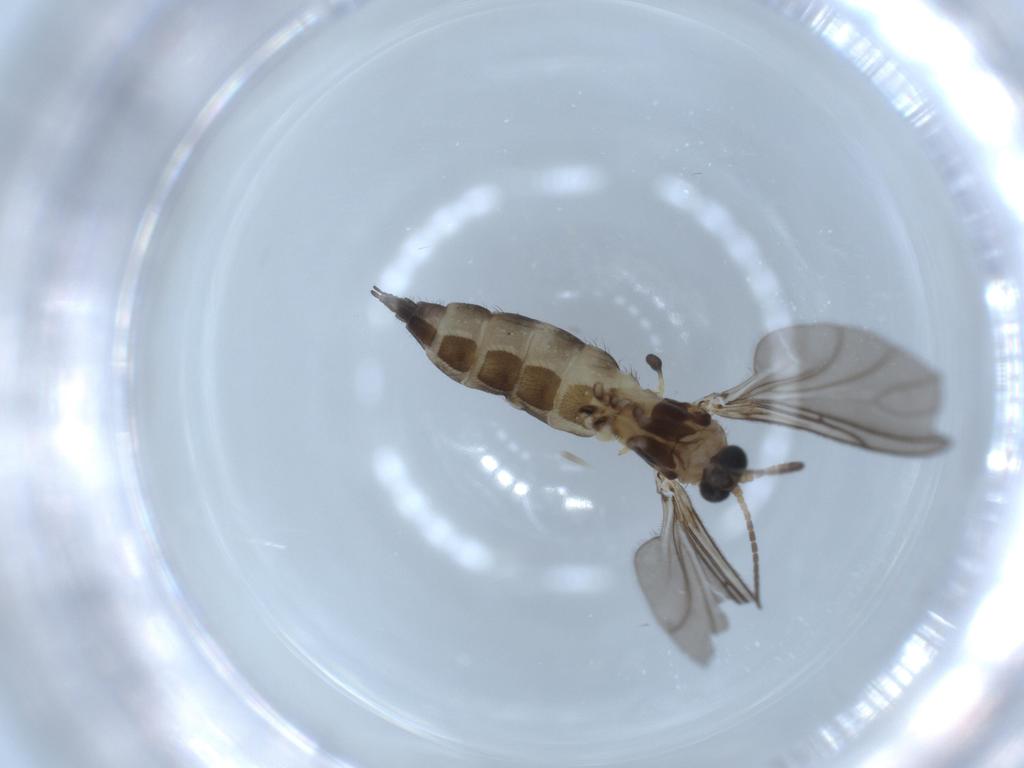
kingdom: Animalia
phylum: Arthropoda
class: Insecta
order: Diptera
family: Sciaridae
